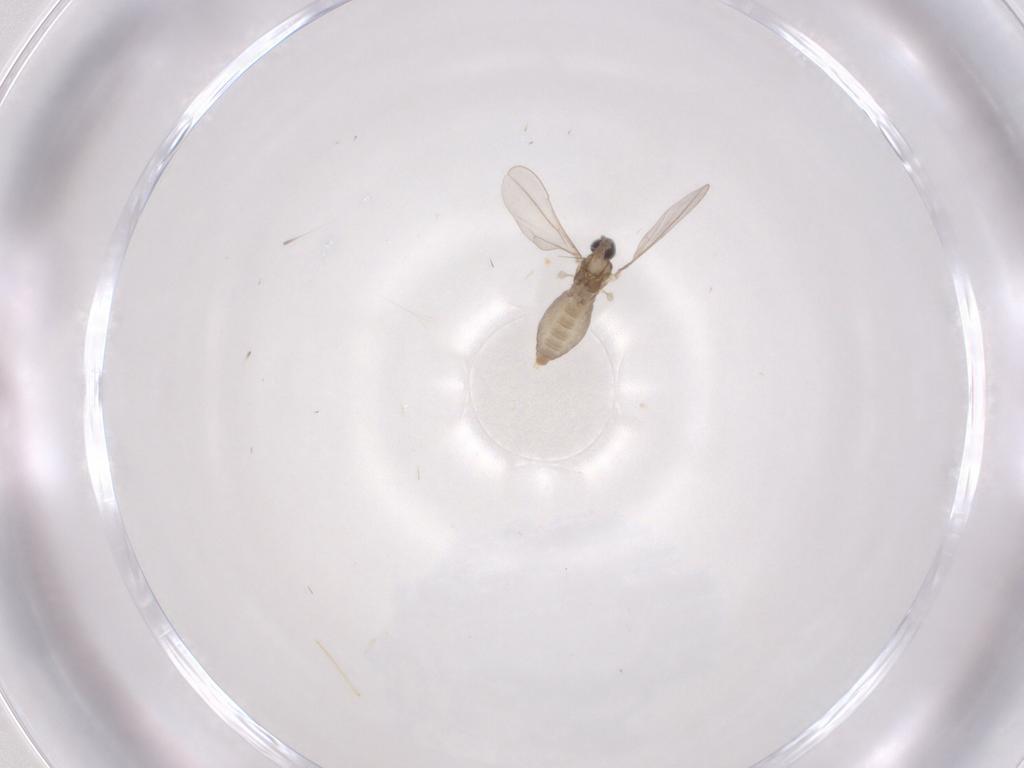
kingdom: Animalia
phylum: Arthropoda
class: Insecta
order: Diptera
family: Cecidomyiidae
